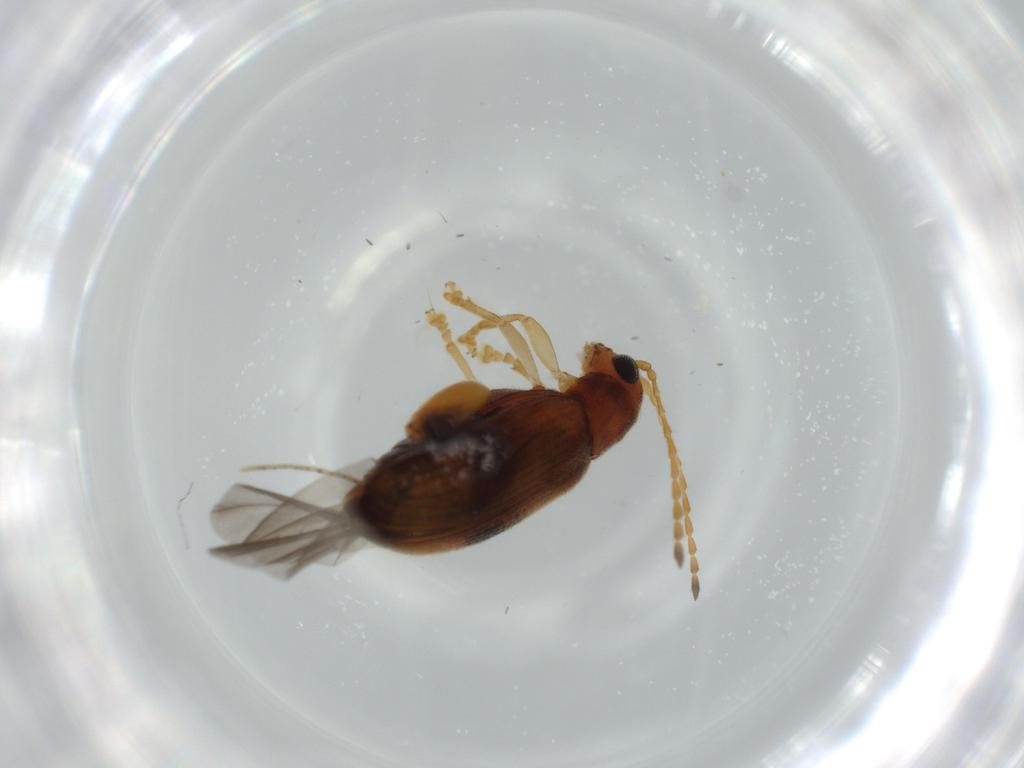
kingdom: Animalia
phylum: Arthropoda
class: Insecta
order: Coleoptera
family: Chrysomelidae
